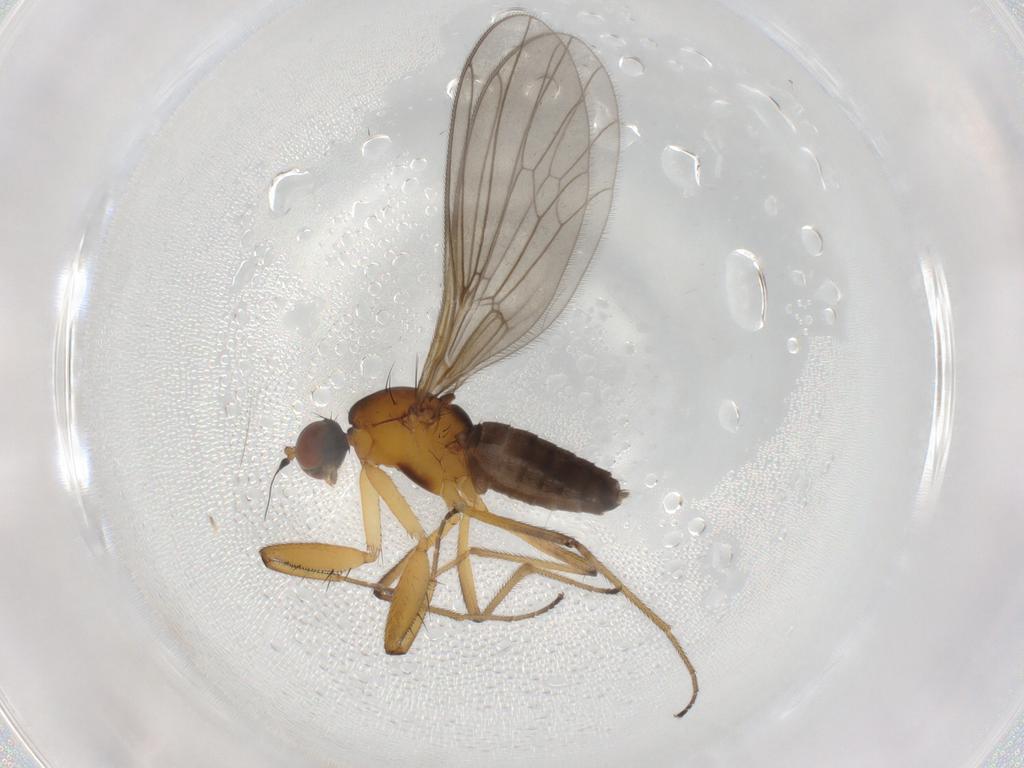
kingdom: Animalia
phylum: Arthropoda
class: Insecta
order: Diptera
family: Empididae
